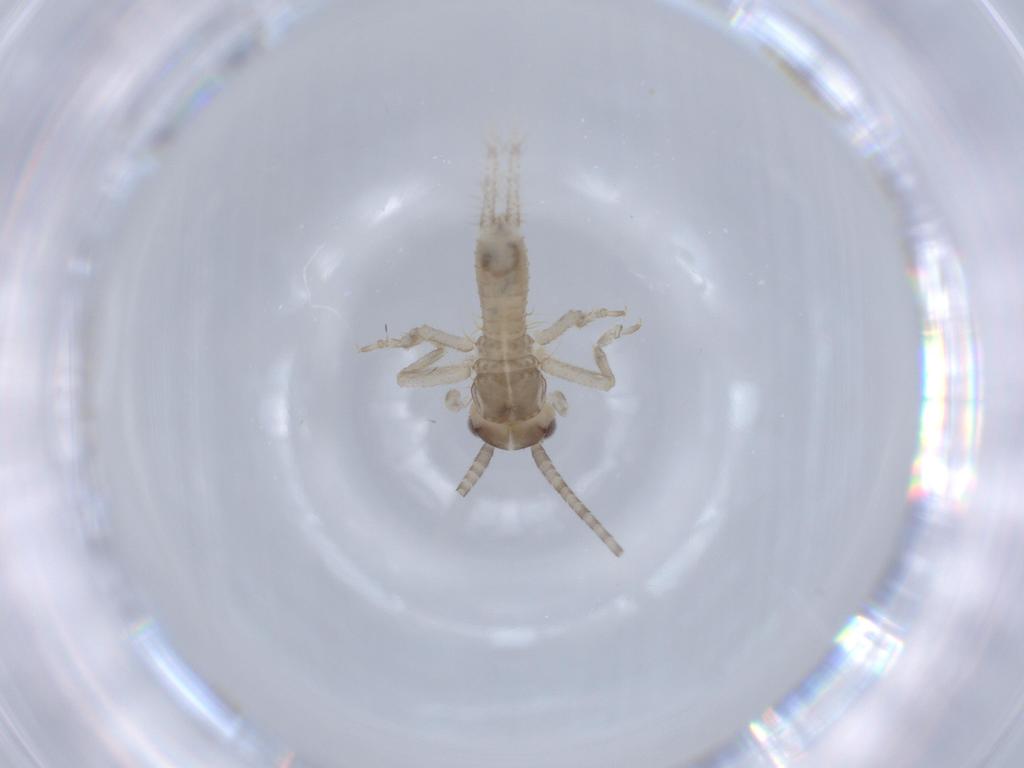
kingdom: Animalia
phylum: Arthropoda
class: Insecta
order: Orthoptera
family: Gryllidae
